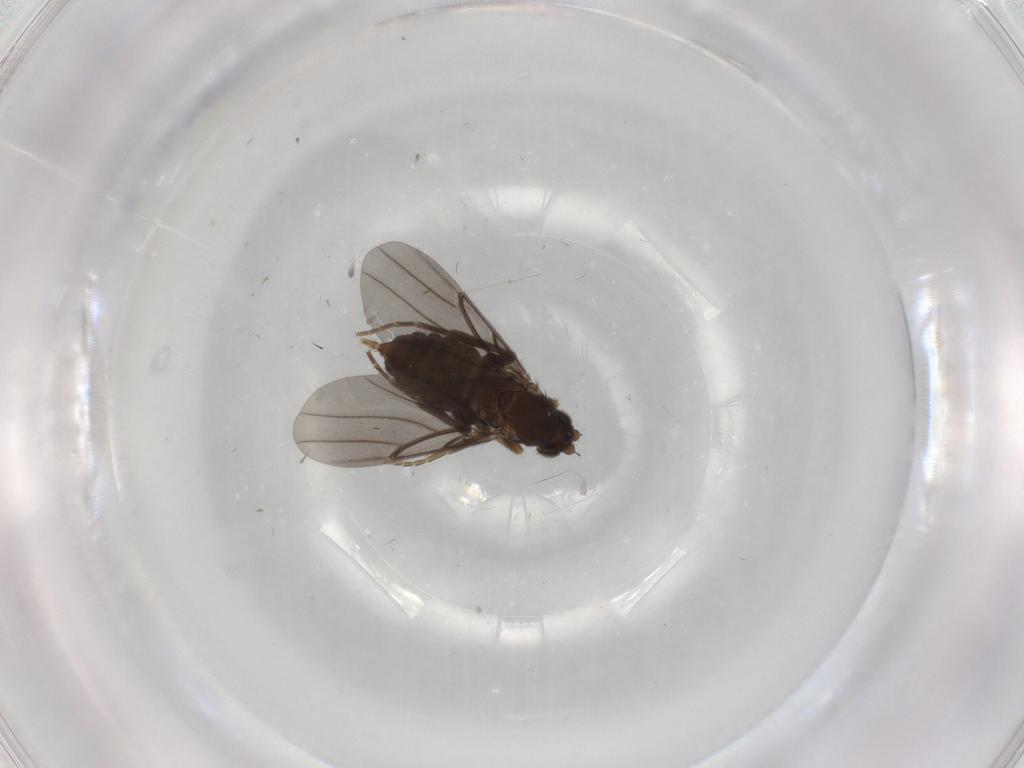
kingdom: Animalia
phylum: Arthropoda
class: Insecta
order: Diptera
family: Phoridae
